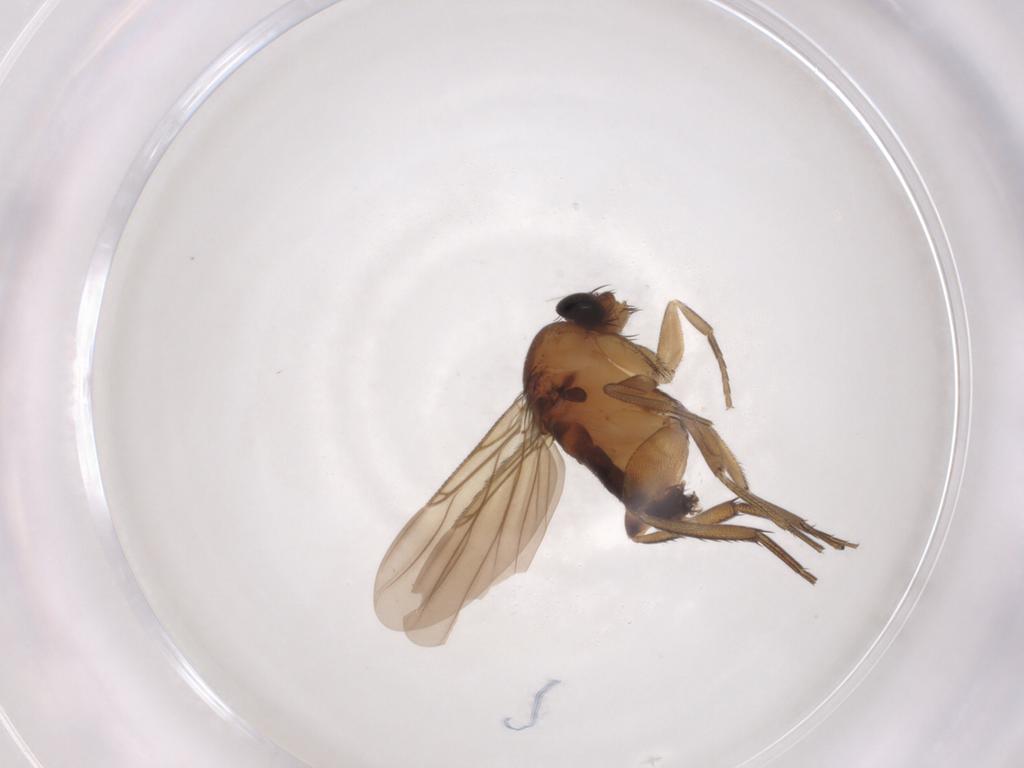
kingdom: Animalia
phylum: Arthropoda
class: Insecta
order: Diptera
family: Phoridae
